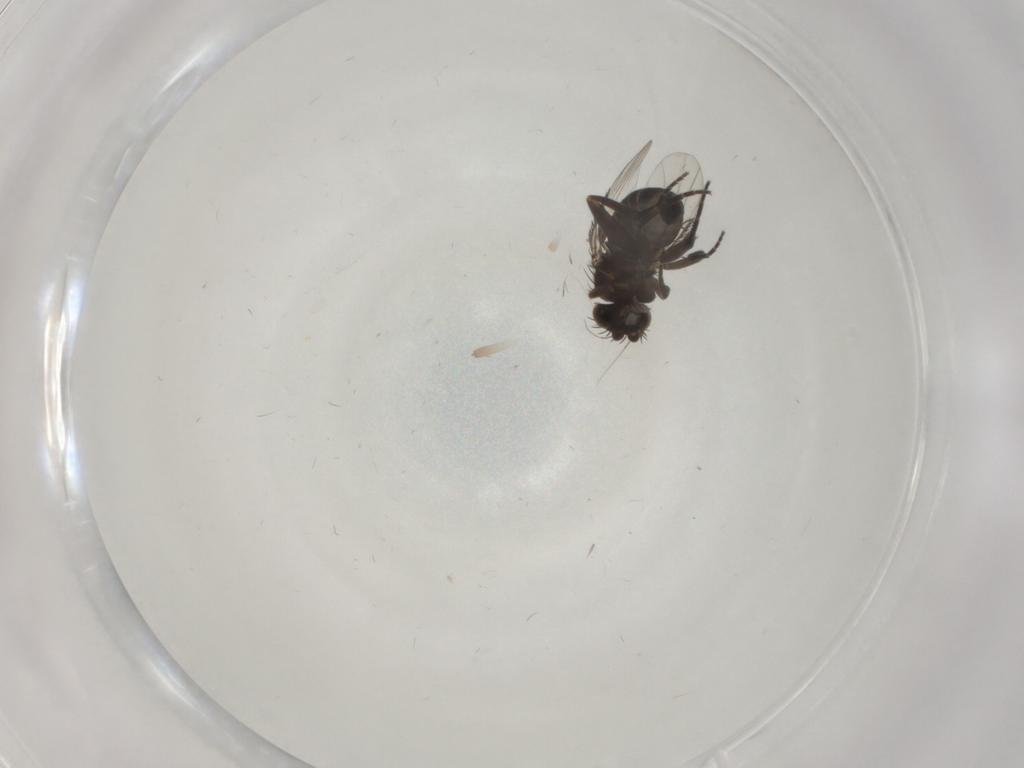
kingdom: Animalia
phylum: Arthropoda
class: Insecta
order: Diptera
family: Phoridae
